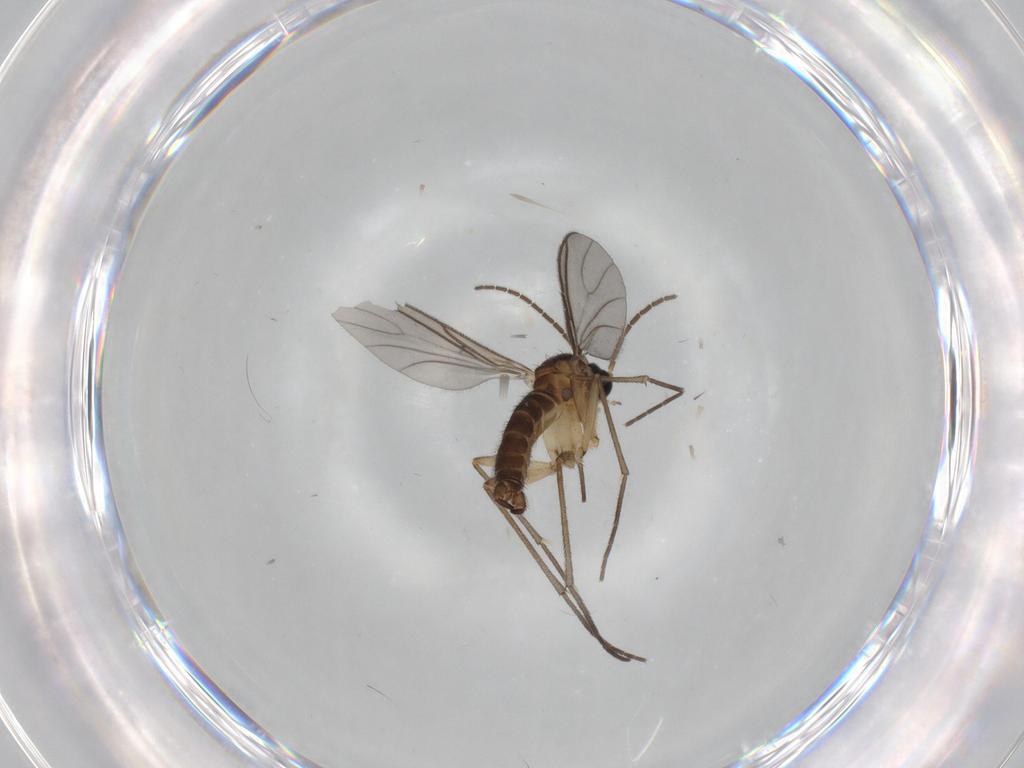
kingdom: Animalia
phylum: Arthropoda
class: Insecta
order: Diptera
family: Sciaridae
